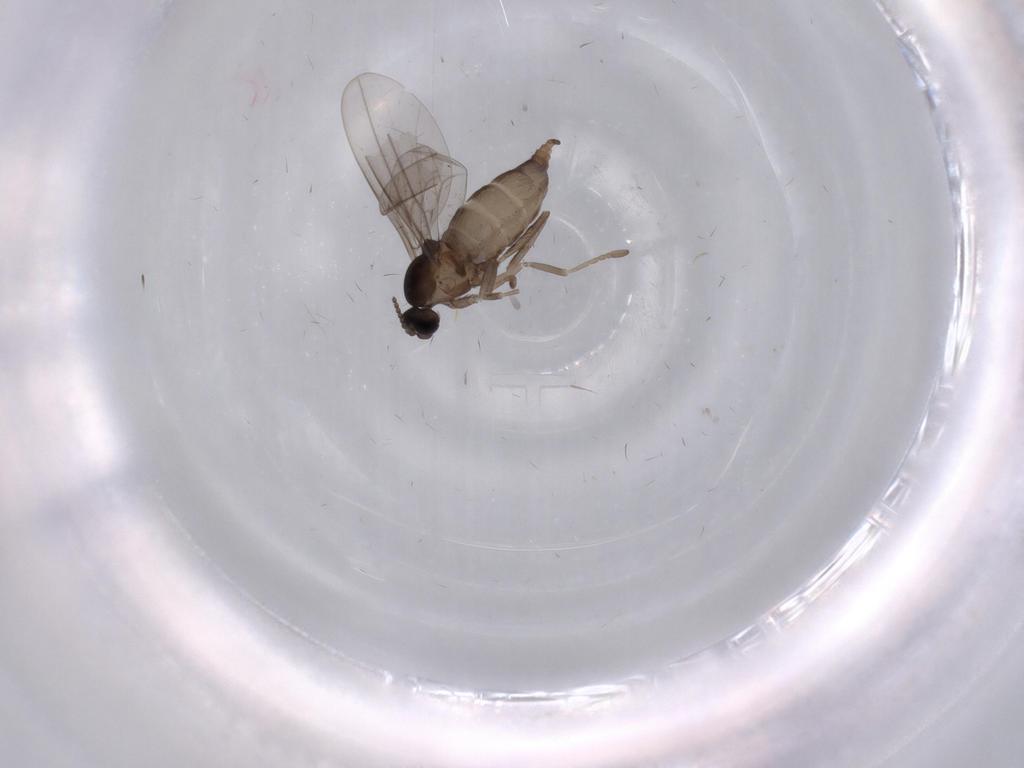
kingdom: Animalia
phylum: Arthropoda
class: Insecta
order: Diptera
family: Cecidomyiidae
